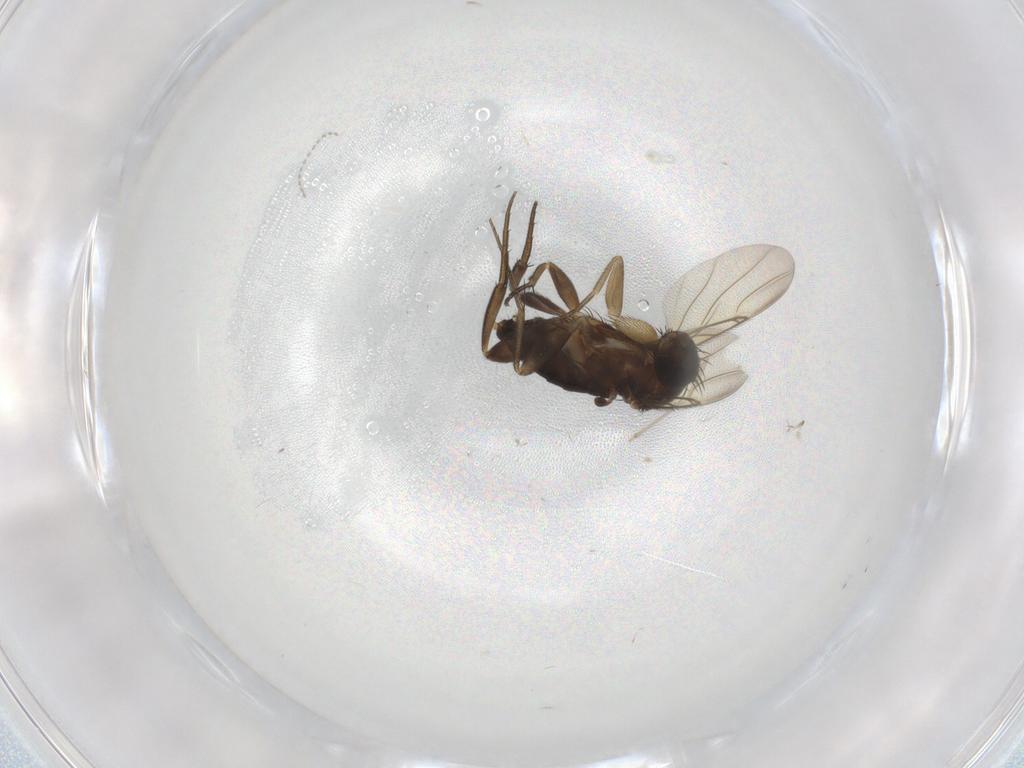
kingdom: Animalia
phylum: Arthropoda
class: Insecta
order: Diptera
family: Phoridae
